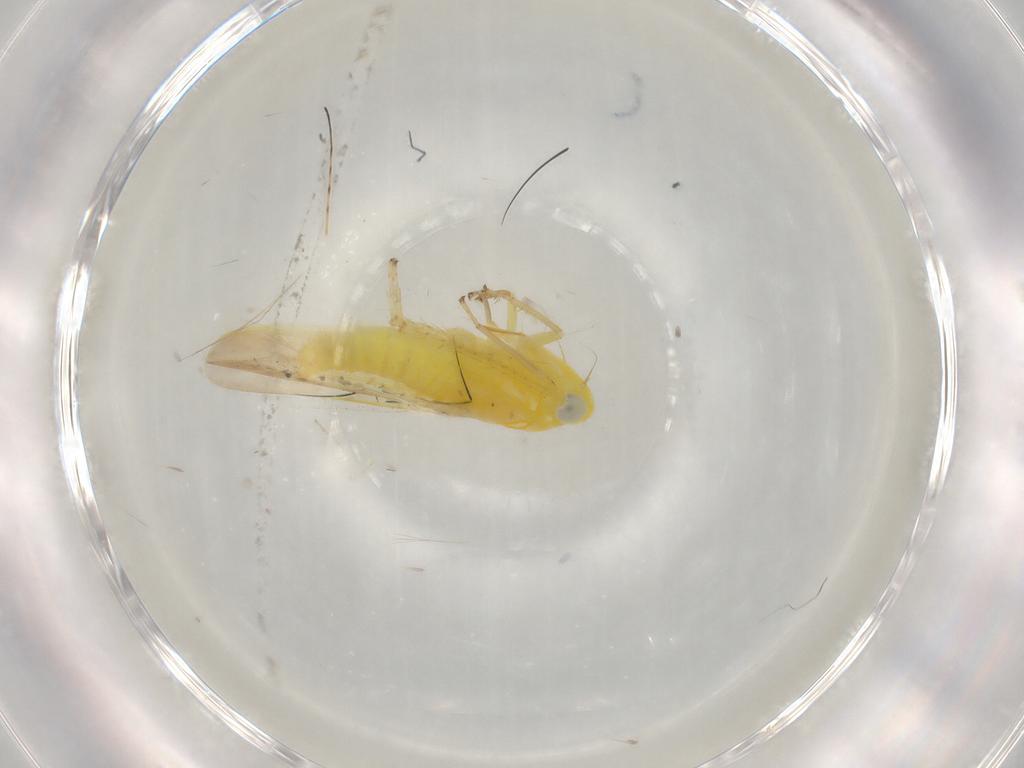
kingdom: Animalia
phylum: Arthropoda
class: Insecta
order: Hemiptera
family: Cicadellidae
